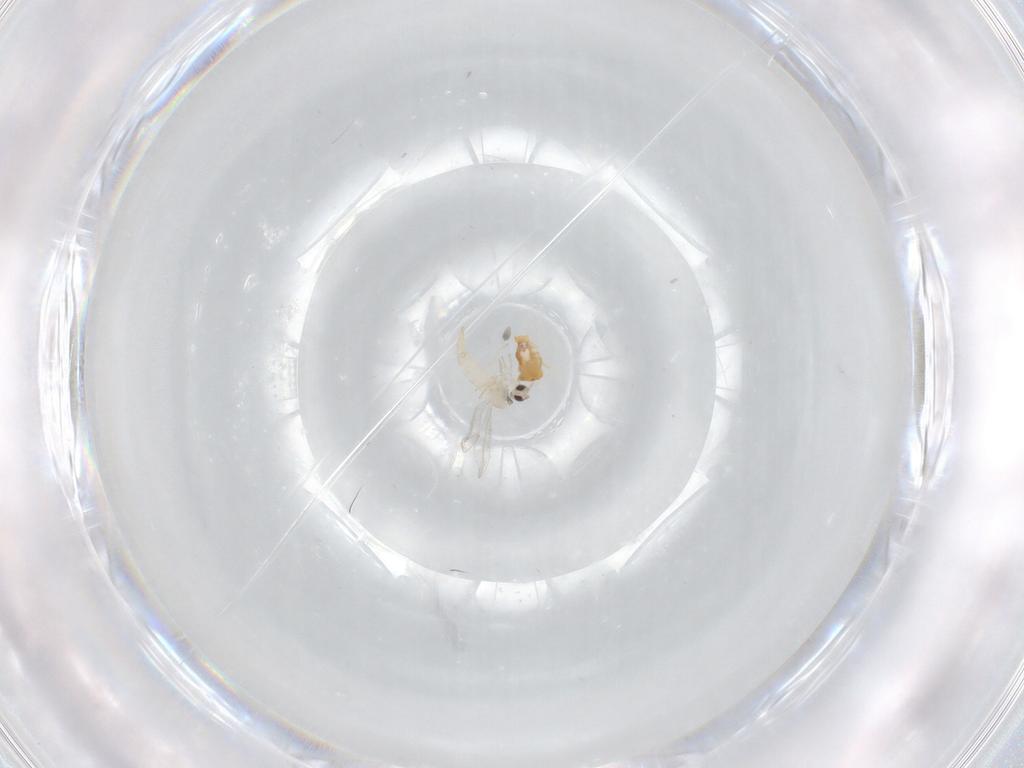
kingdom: Animalia
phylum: Arthropoda
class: Insecta
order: Diptera
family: Cecidomyiidae
